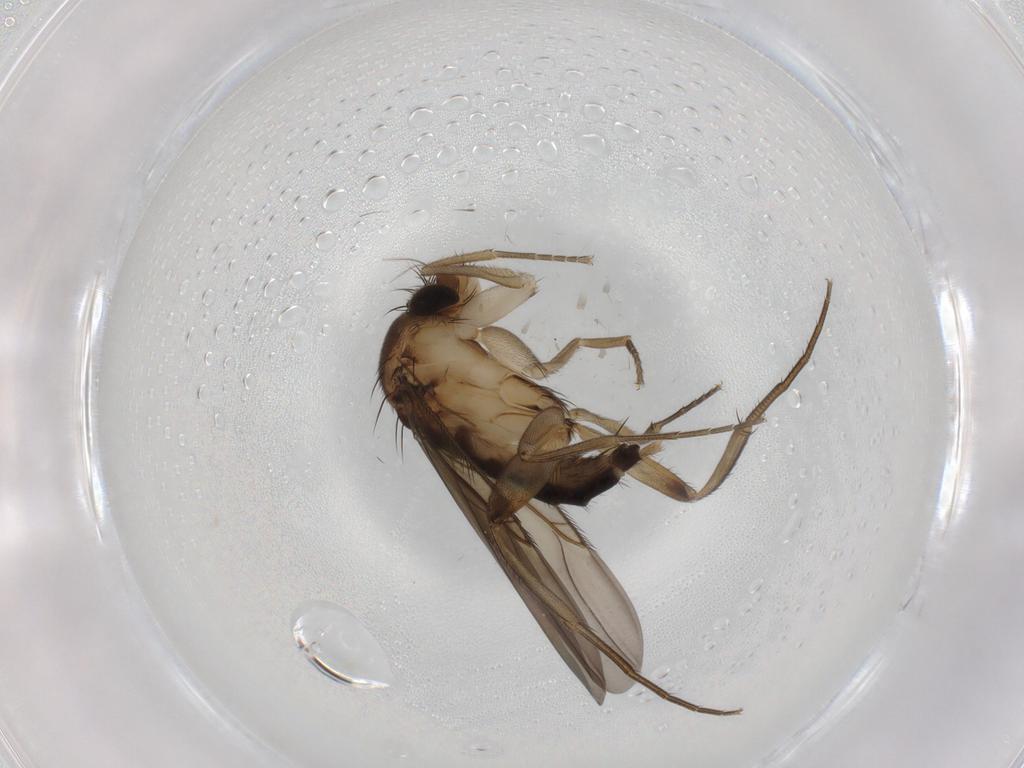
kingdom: Animalia
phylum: Arthropoda
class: Insecta
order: Diptera
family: Phoridae
